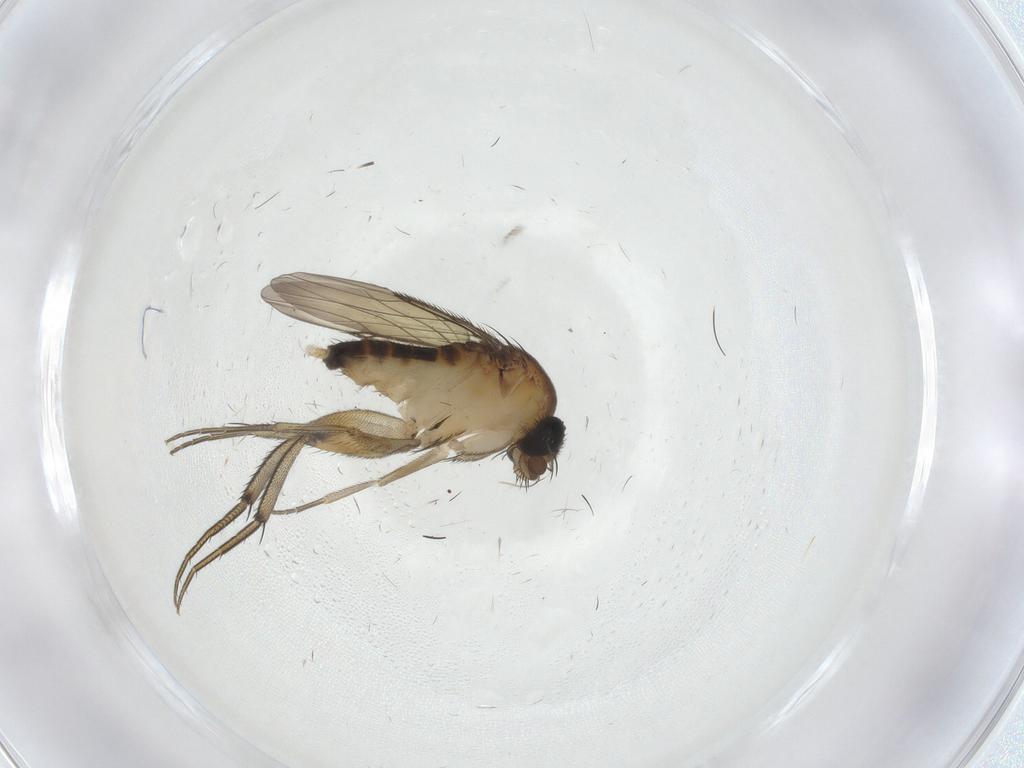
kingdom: Animalia
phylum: Arthropoda
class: Insecta
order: Diptera
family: Phoridae
